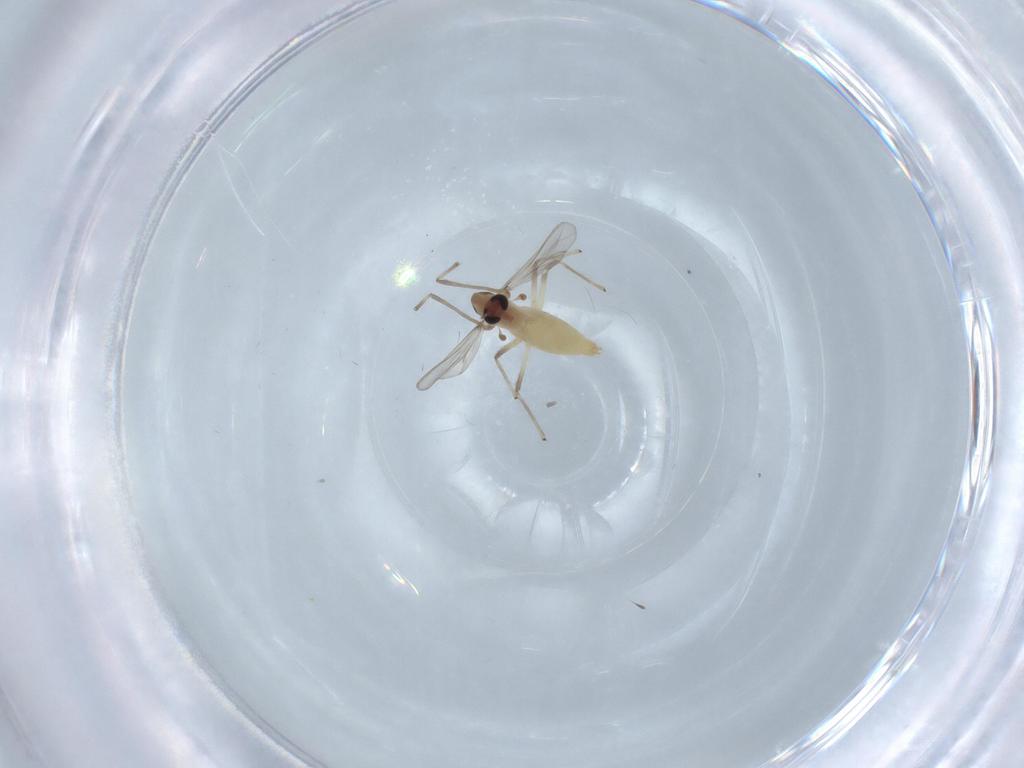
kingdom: Animalia
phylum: Arthropoda
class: Insecta
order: Diptera
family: Chironomidae
